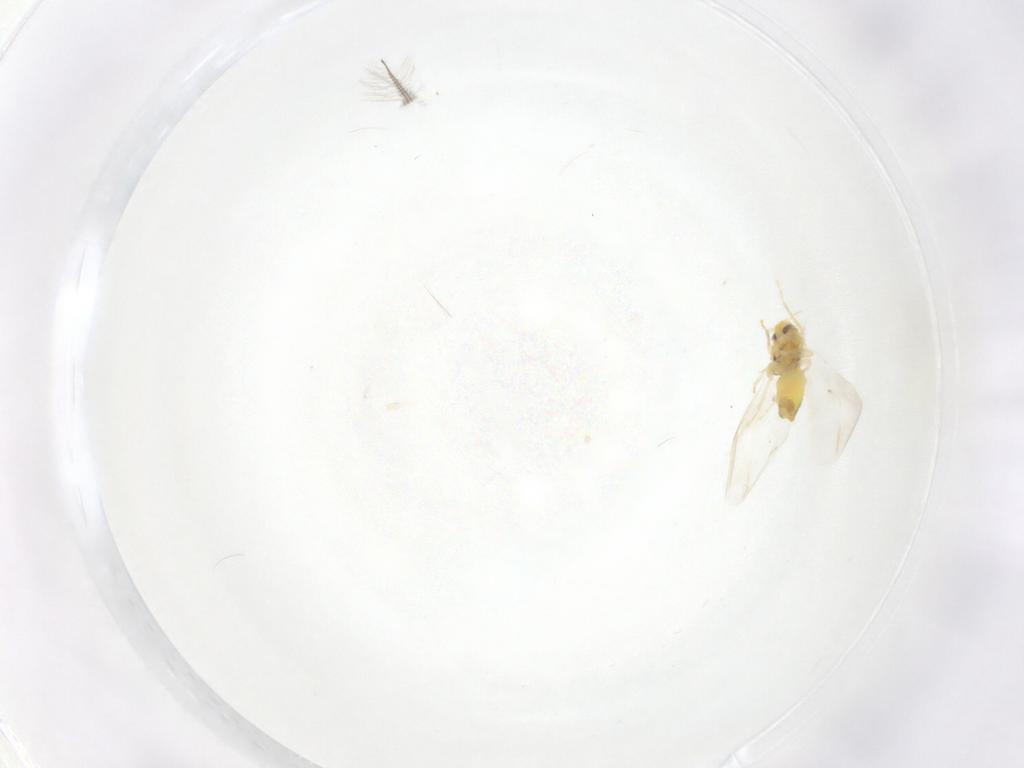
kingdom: Animalia
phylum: Arthropoda
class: Insecta
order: Diptera
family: Chironomidae
